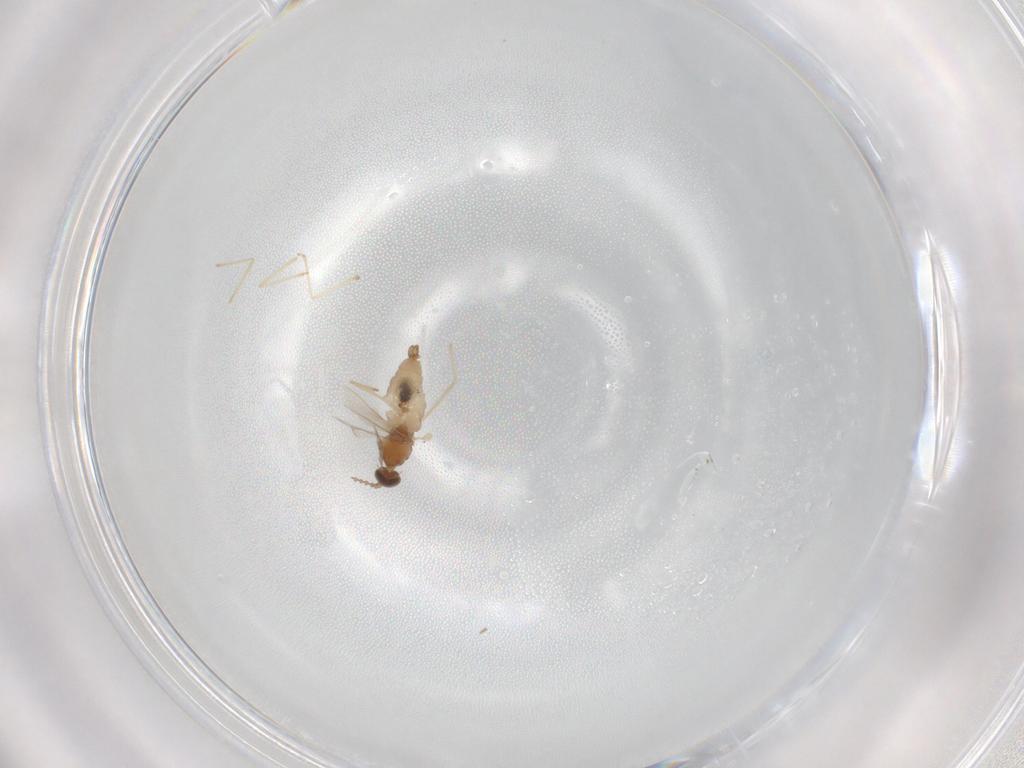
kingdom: Animalia
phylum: Arthropoda
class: Insecta
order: Diptera
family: Cecidomyiidae
